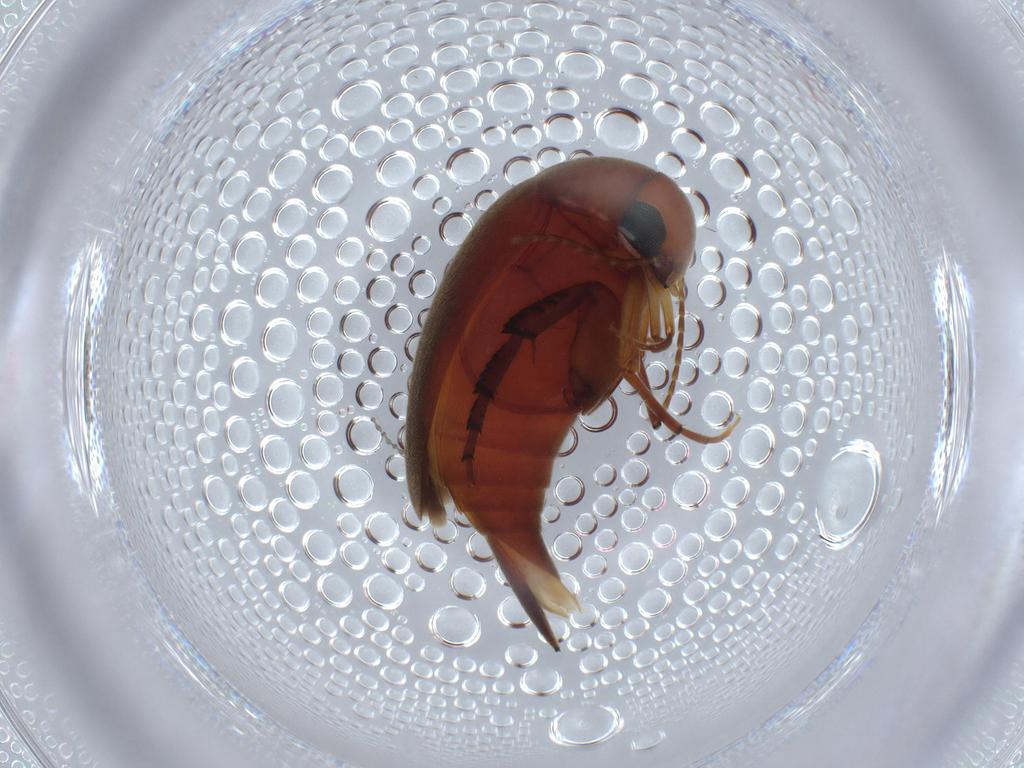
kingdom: Animalia
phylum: Arthropoda
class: Insecta
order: Coleoptera
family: Mordellidae
